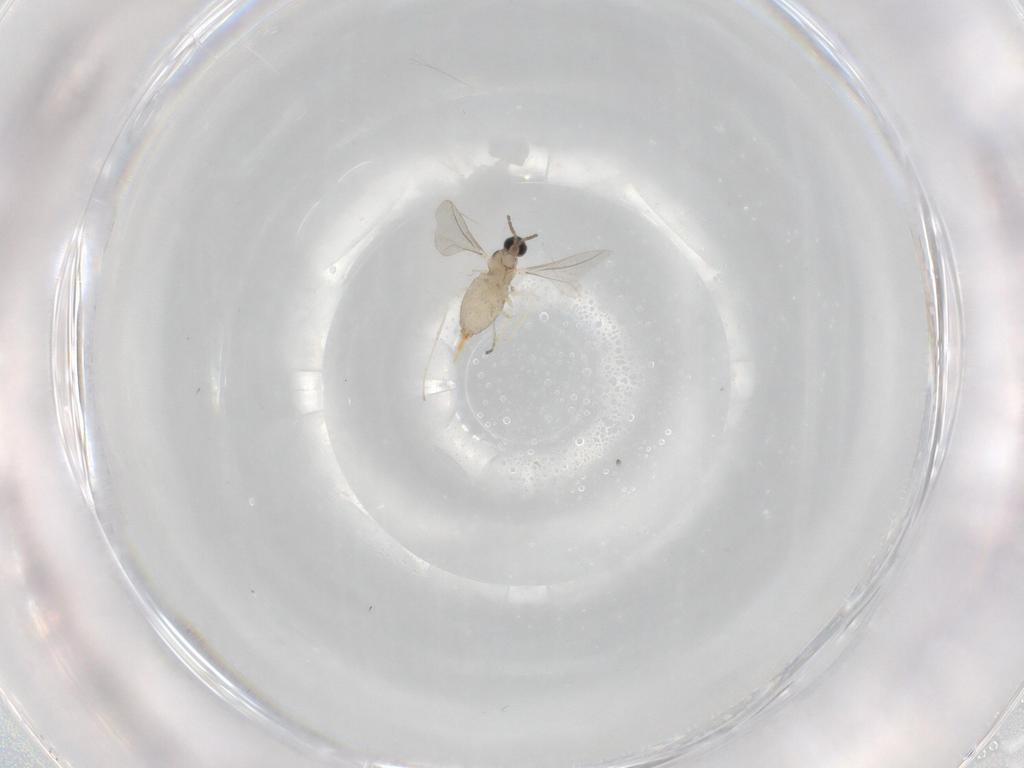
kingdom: Animalia
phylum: Arthropoda
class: Insecta
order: Diptera
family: Cecidomyiidae
